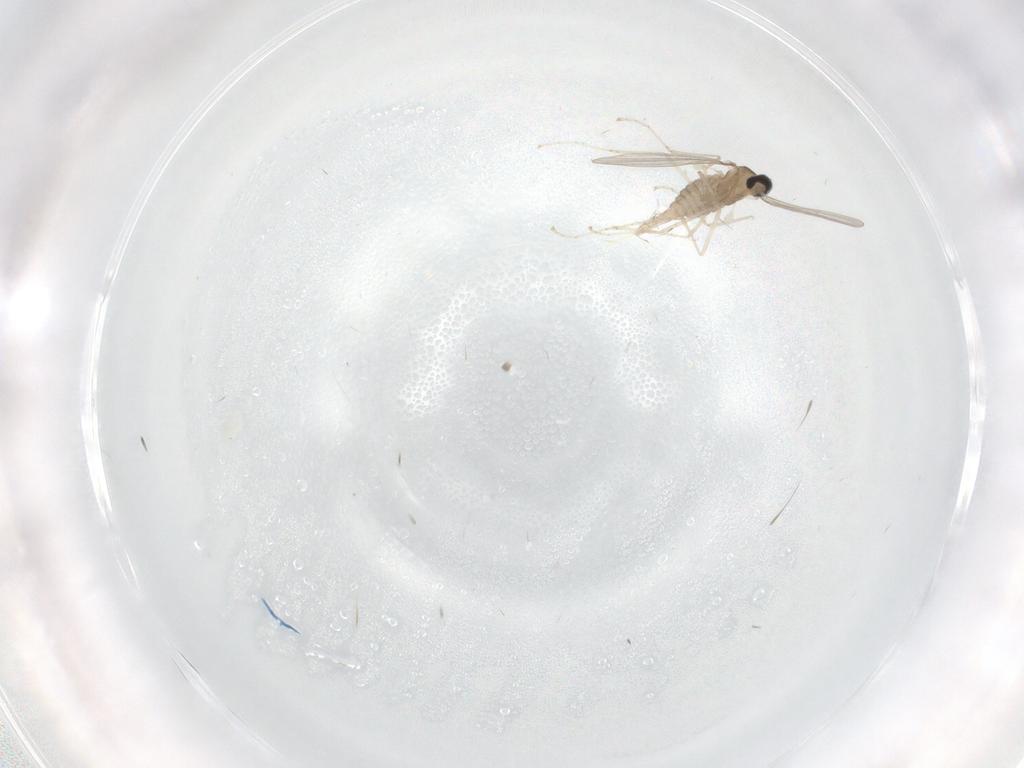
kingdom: Animalia
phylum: Arthropoda
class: Insecta
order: Diptera
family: Cecidomyiidae
